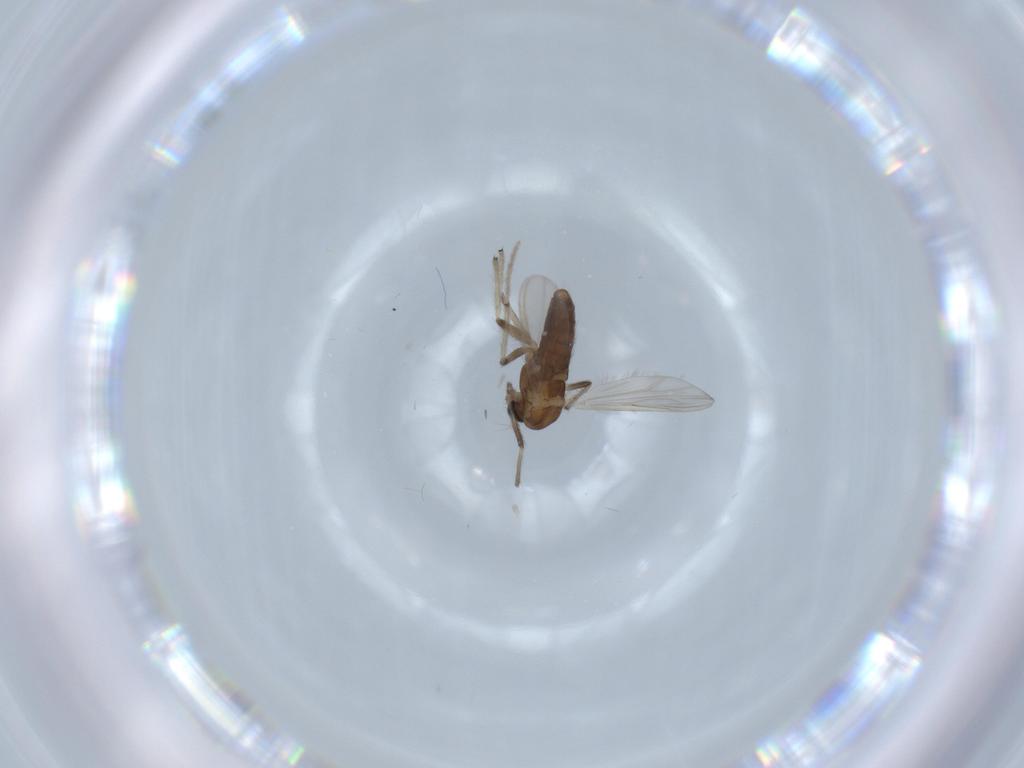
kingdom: Animalia
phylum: Arthropoda
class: Insecta
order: Diptera
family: Chironomidae
